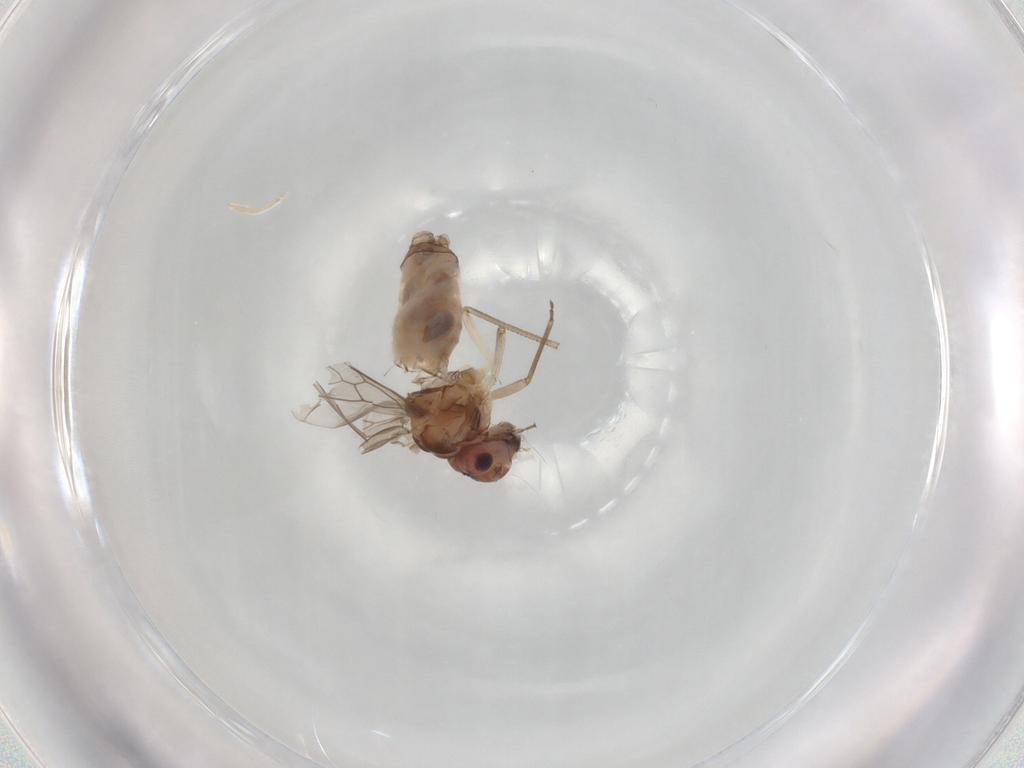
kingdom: Animalia
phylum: Arthropoda
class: Insecta
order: Psocodea
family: Peripsocidae
